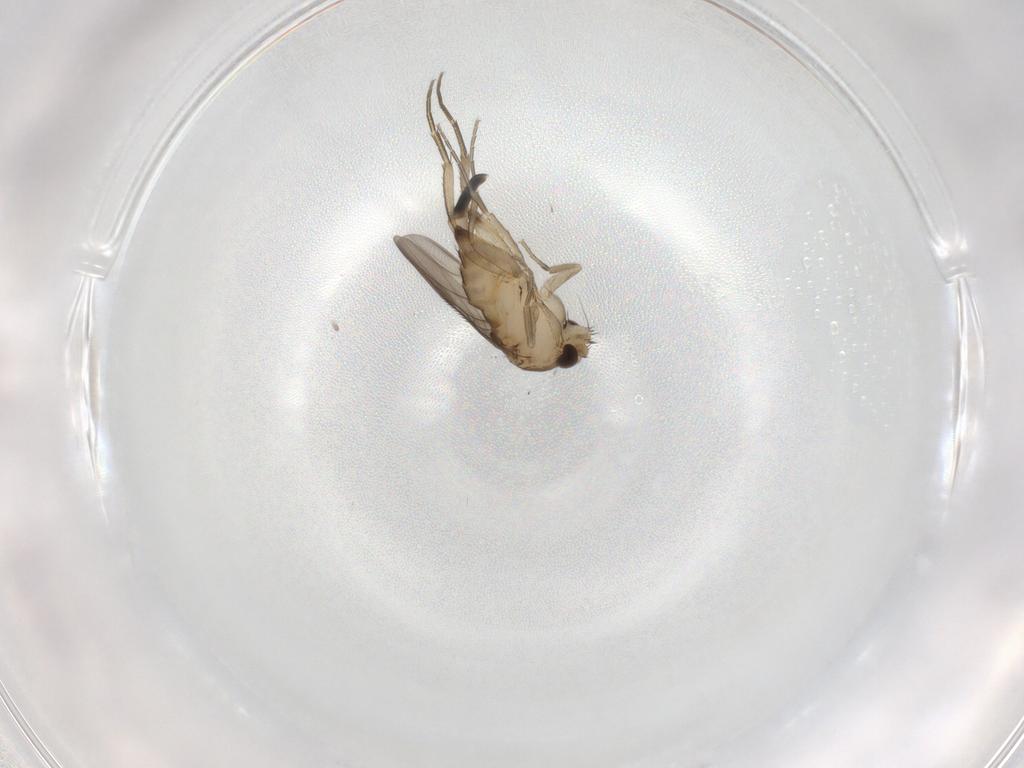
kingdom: Animalia
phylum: Arthropoda
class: Insecta
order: Diptera
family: Phoridae
